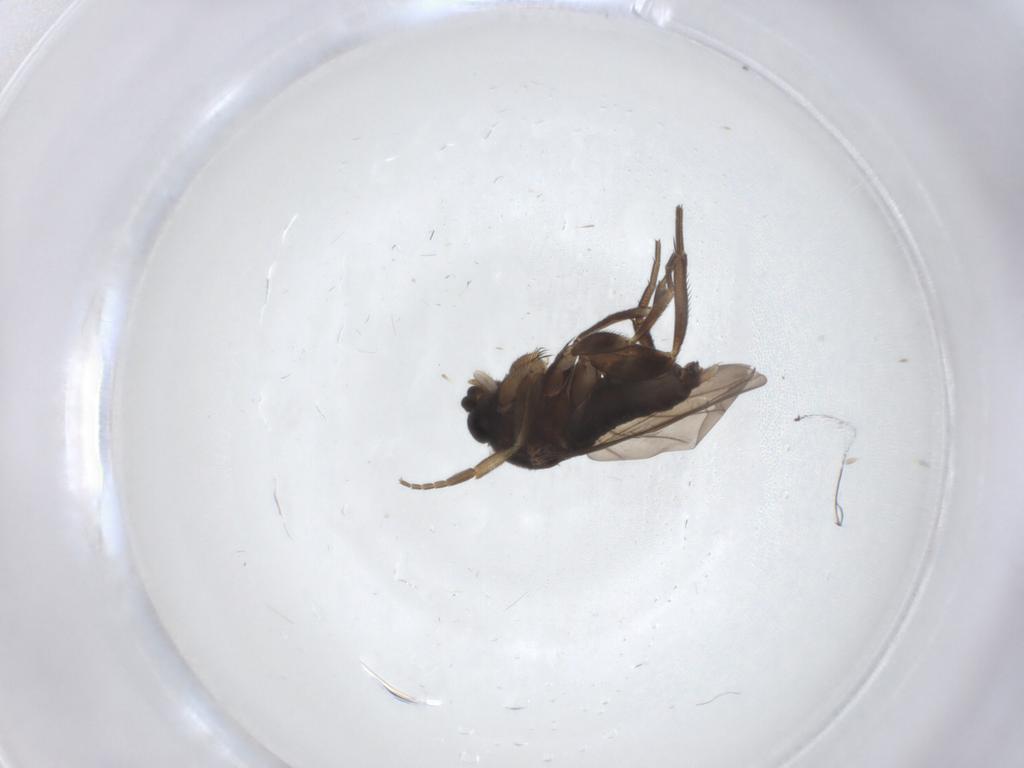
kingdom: Animalia
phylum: Arthropoda
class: Insecta
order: Diptera
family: Phoridae
